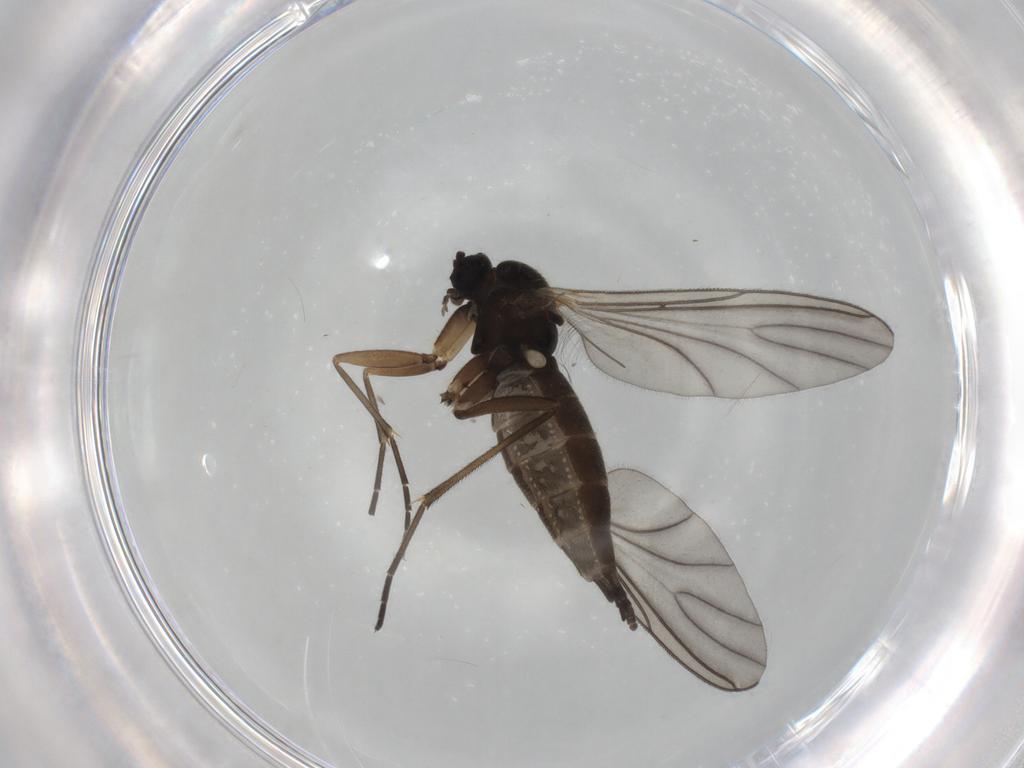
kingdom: Animalia
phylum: Arthropoda
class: Insecta
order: Diptera
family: Sciaridae
